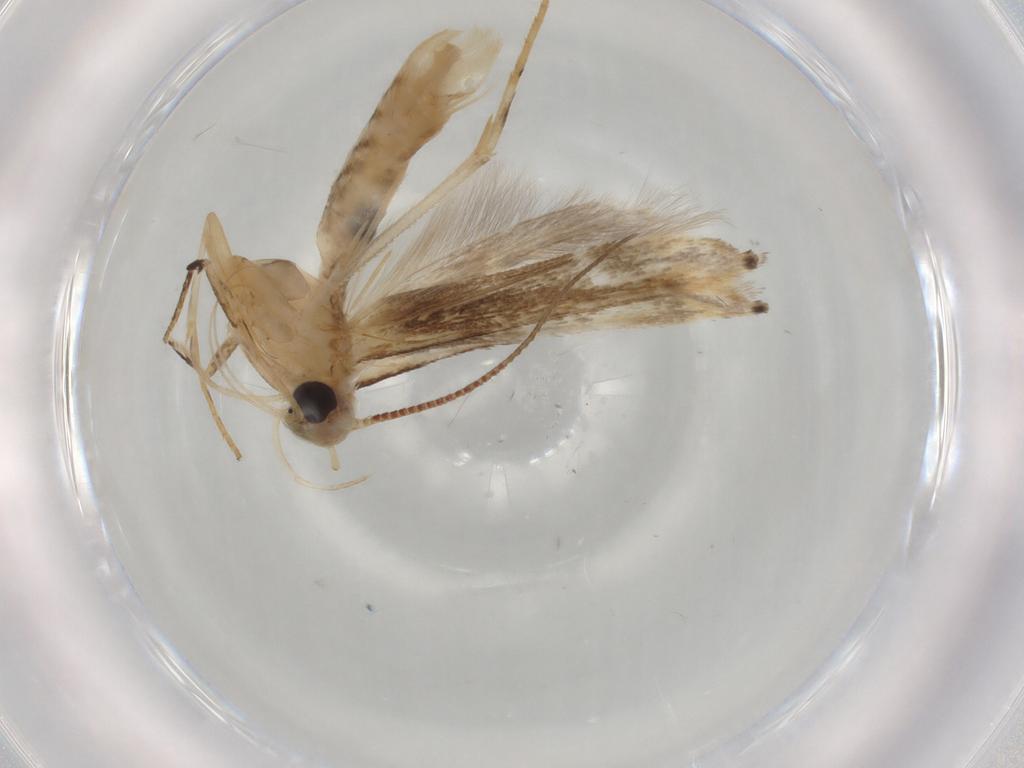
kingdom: Animalia
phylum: Arthropoda
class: Insecta
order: Lepidoptera
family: Gelechiidae
